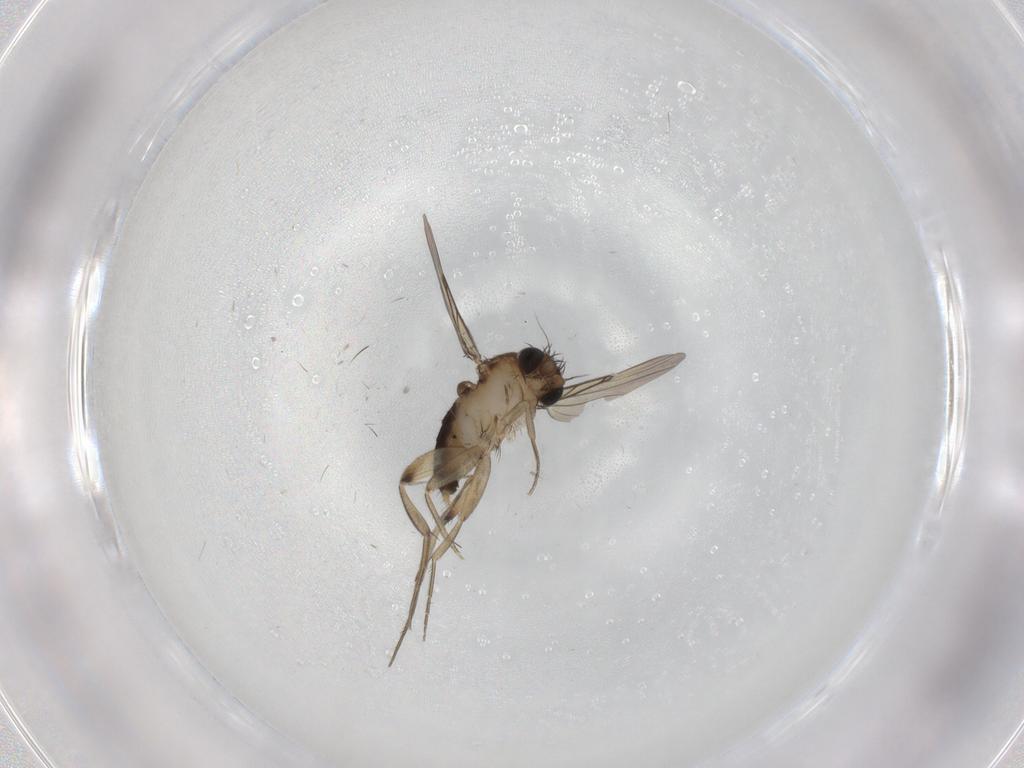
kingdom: Animalia
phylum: Arthropoda
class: Insecta
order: Diptera
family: Phoridae
